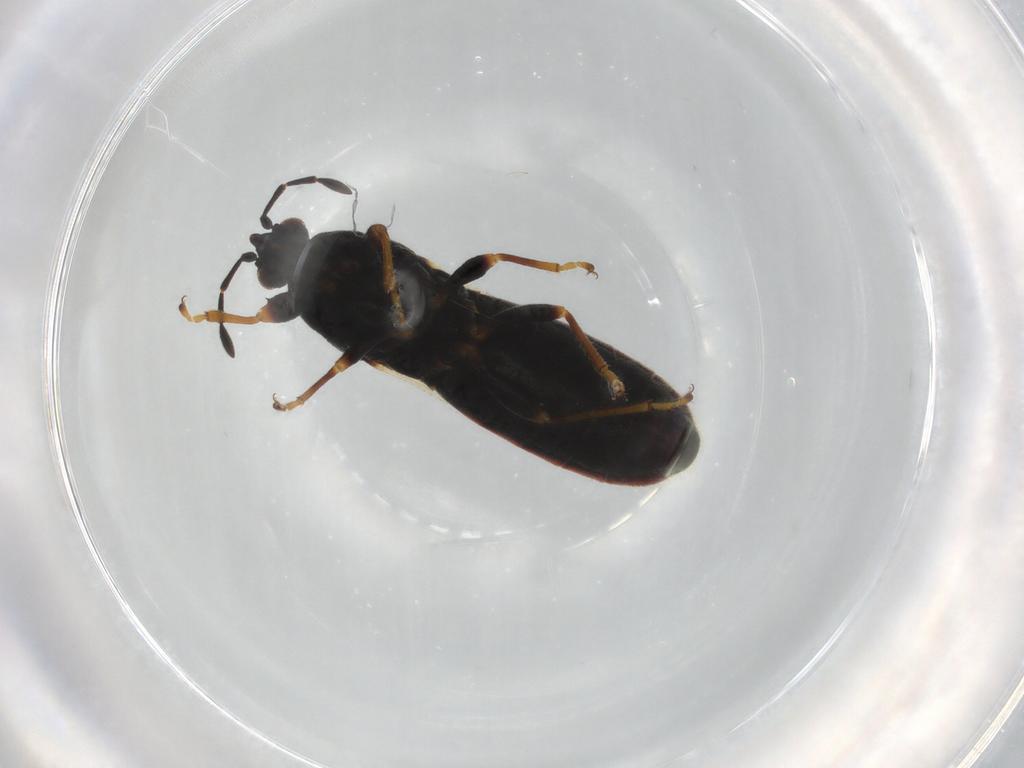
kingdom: Animalia
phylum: Arthropoda
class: Insecta
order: Hemiptera
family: Blissidae
